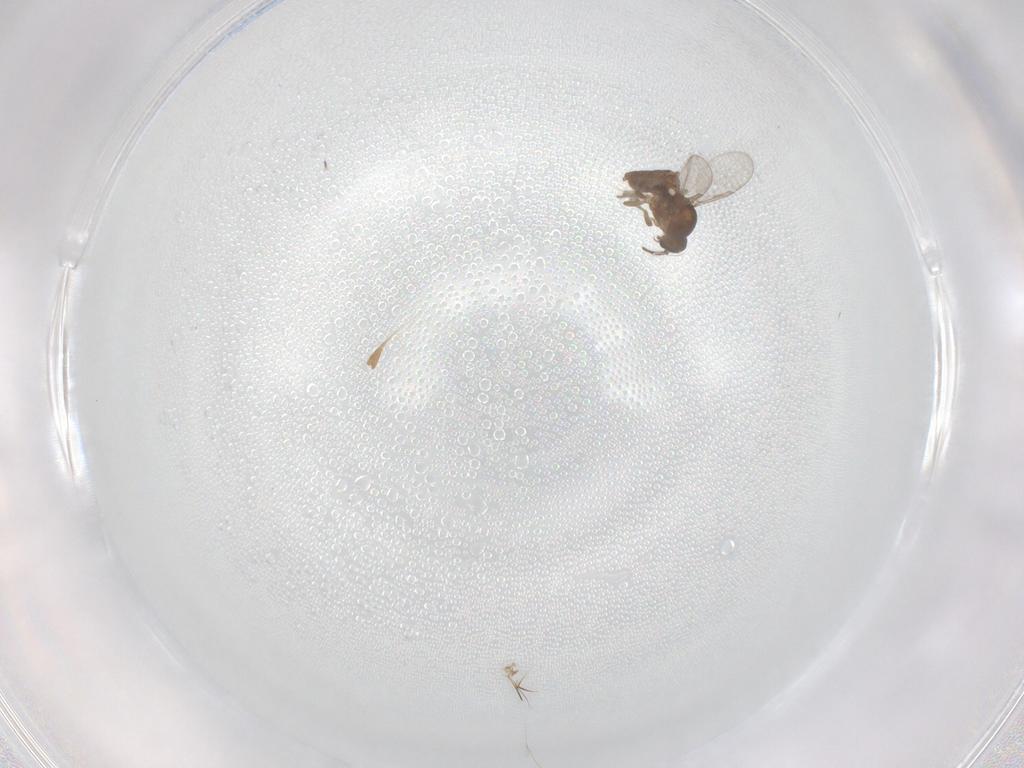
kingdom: Animalia
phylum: Arthropoda
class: Insecta
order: Diptera
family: Ceratopogonidae
